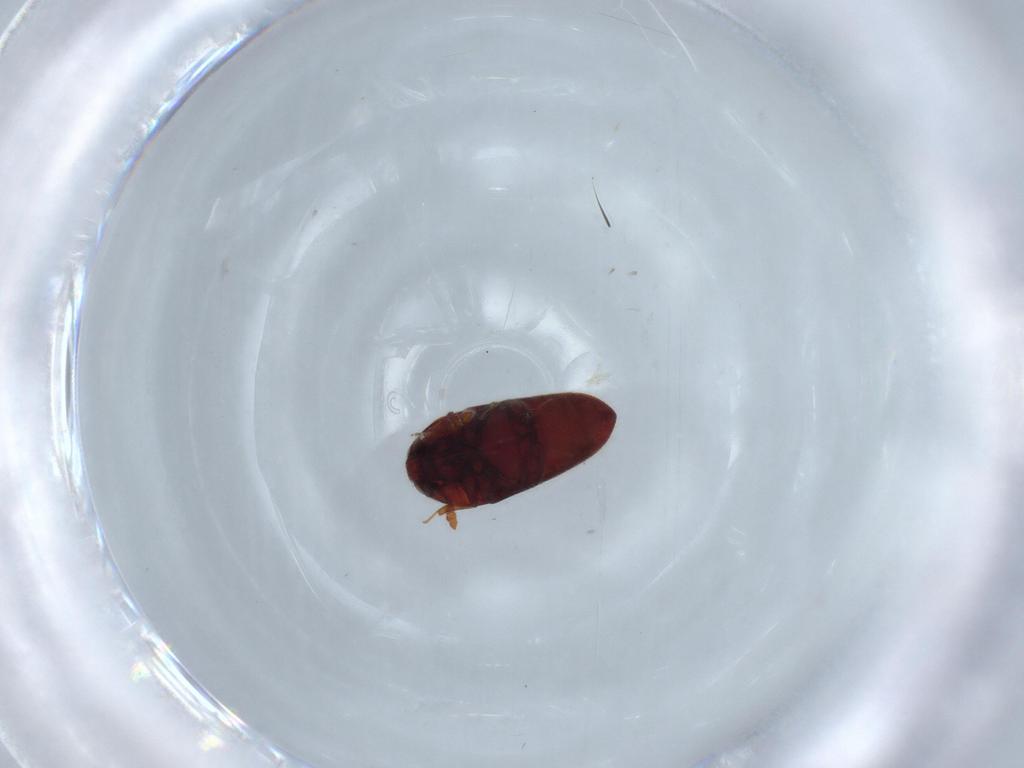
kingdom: Animalia
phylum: Arthropoda
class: Insecta
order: Coleoptera
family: Throscidae
